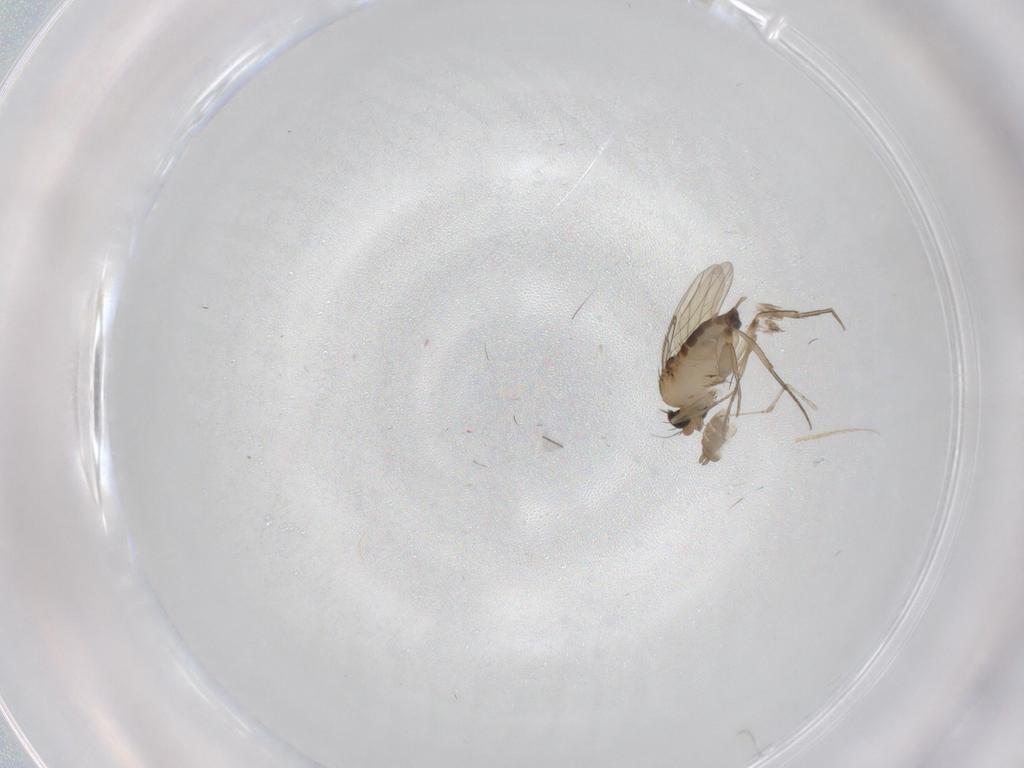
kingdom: Animalia
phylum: Arthropoda
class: Insecta
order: Diptera
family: Cecidomyiidae
